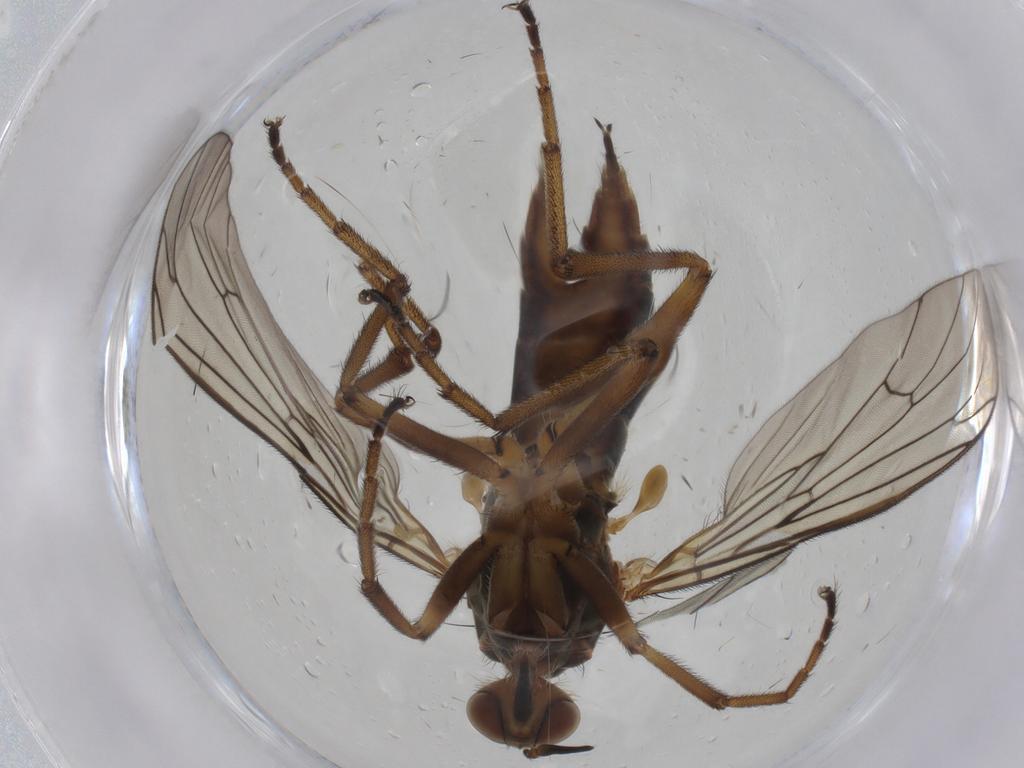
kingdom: Animalia
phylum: Arthropoda
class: Insecta
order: Diptera
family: Empididae
